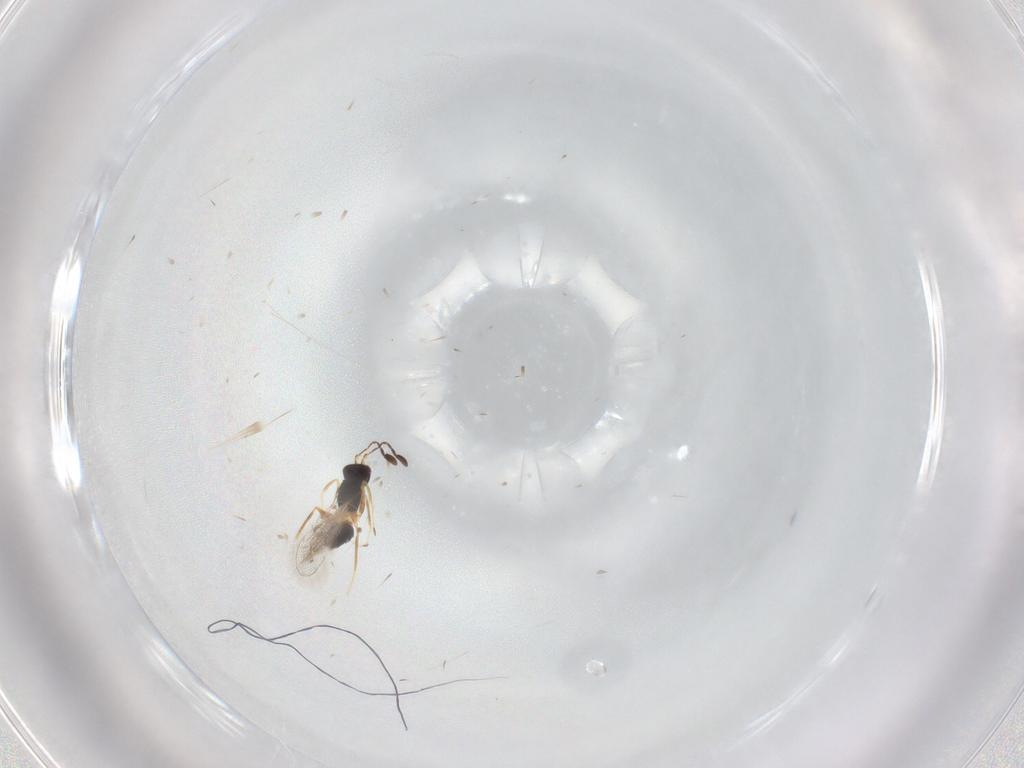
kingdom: Animalia
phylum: Arthropoda
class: Insecta
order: Hymenoptera
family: Mymaridae
